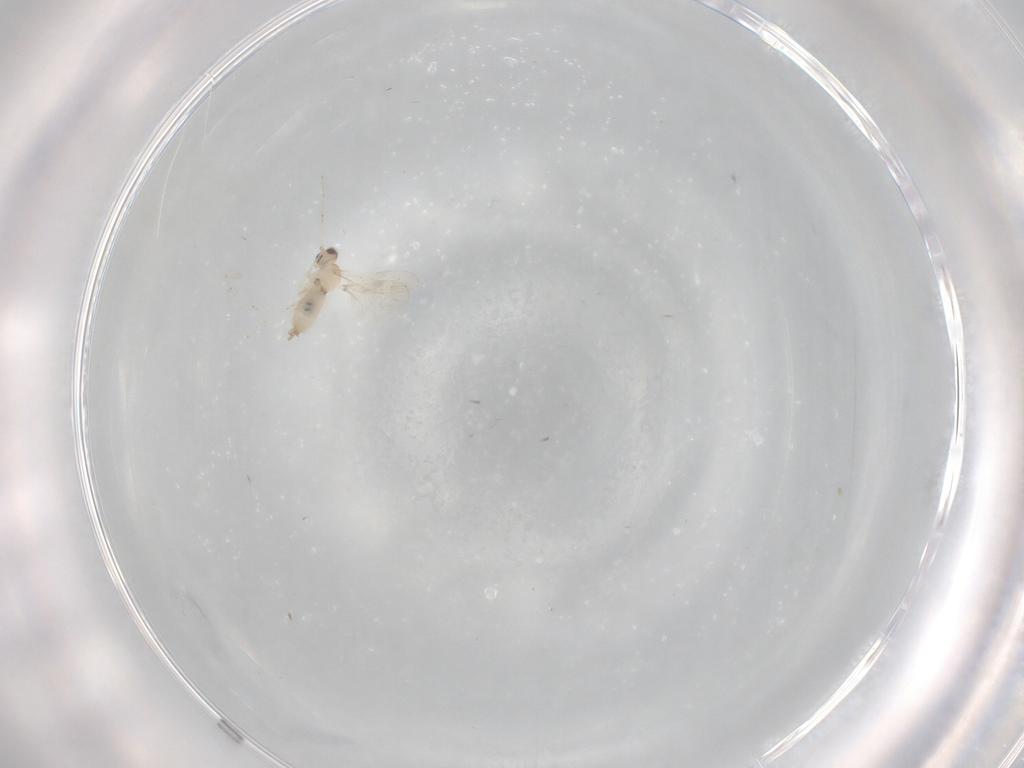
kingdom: Animalia
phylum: Arthropoda
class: Insecta
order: Diptera
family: Cecidomyiidae
